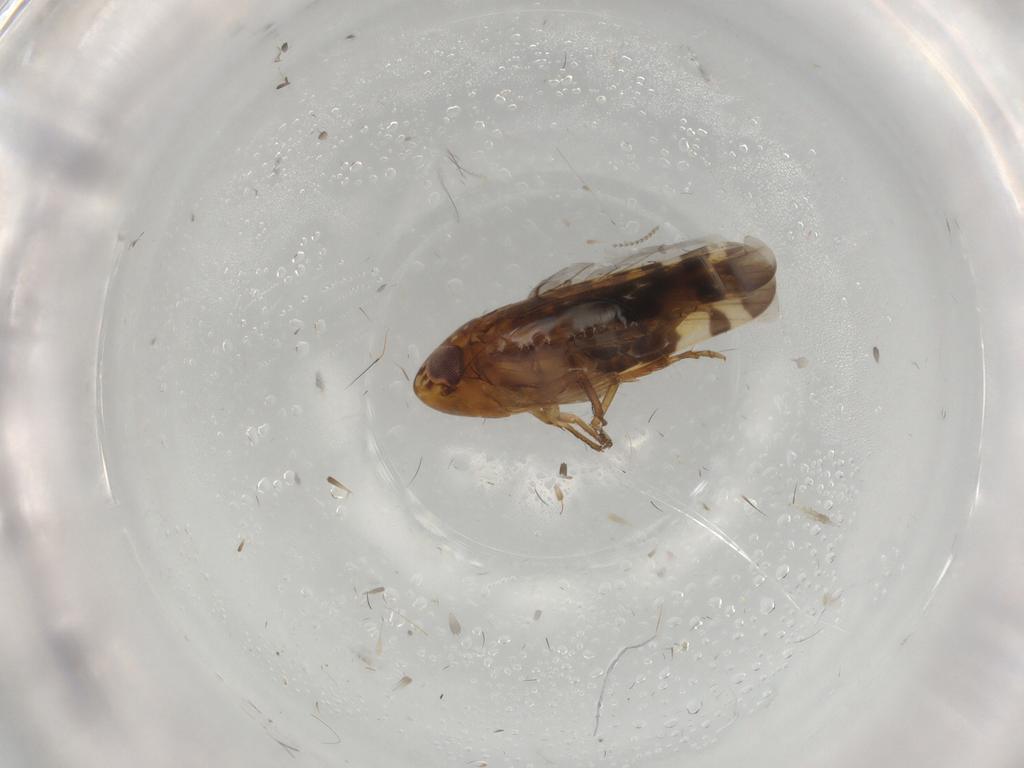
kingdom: Animalia
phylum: Arthropoda
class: Insecta
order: Hemiptera
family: Cicadellidae
